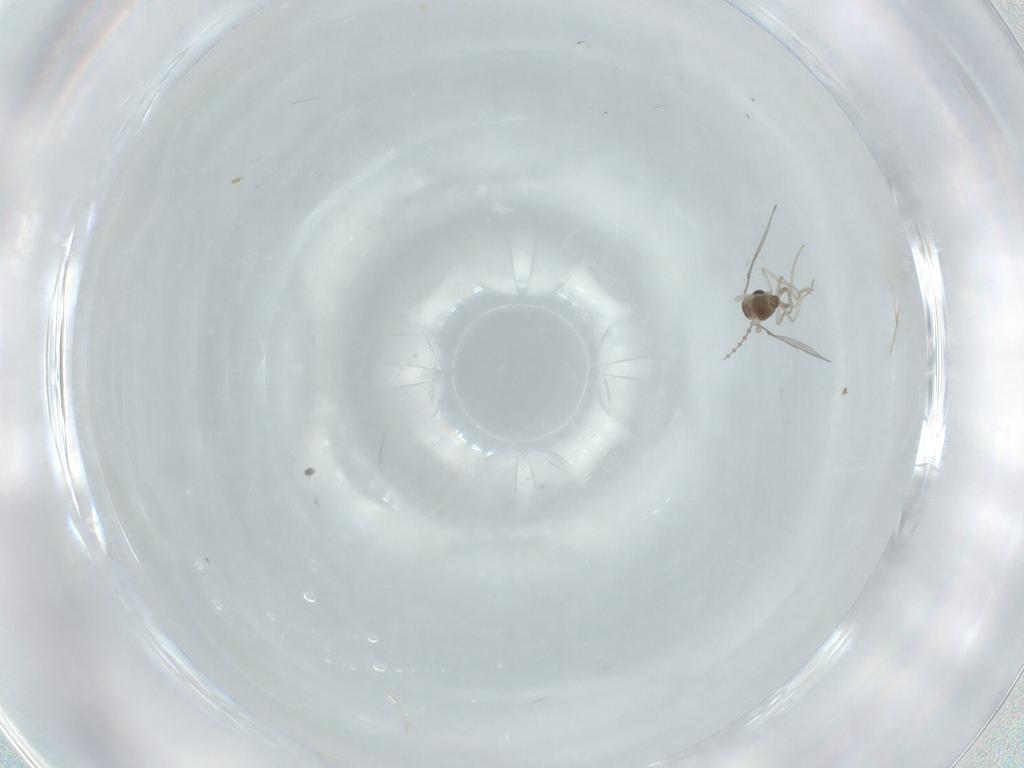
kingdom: Animalia
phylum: Arthropoda
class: Insecta
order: Diptera
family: Cecidomyiidae
